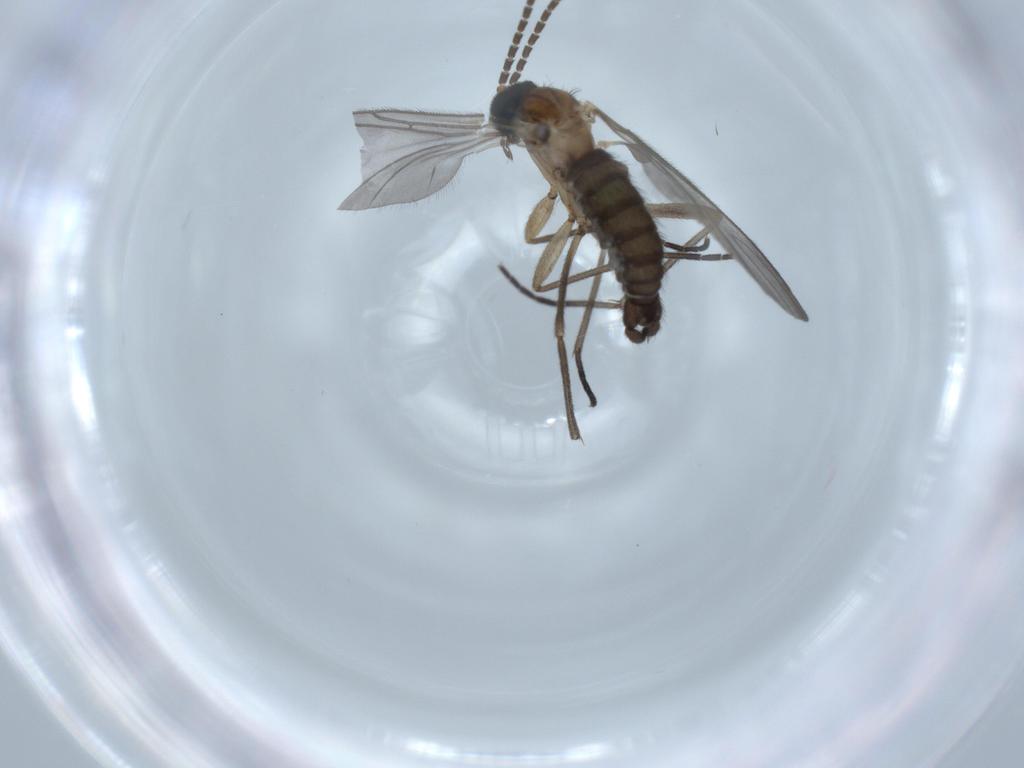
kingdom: Animalia
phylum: Arthropoda
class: Insecta
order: Diptera
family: Sciaridae
